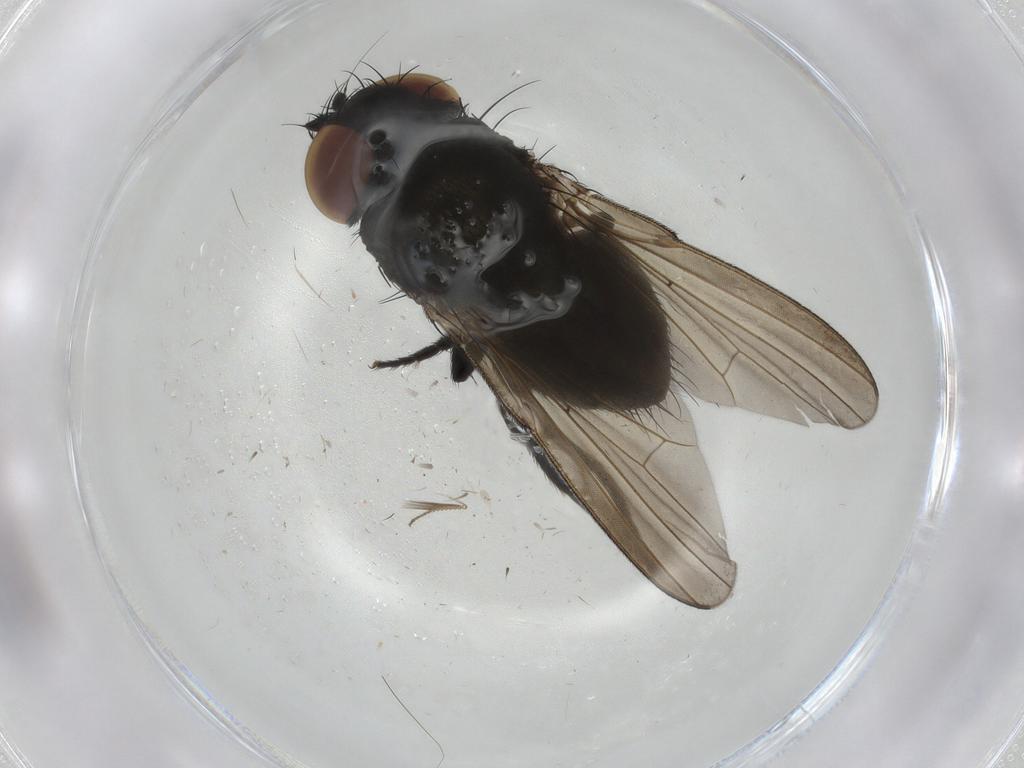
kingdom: Animalia
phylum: Arthropoda
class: Insecta
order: Diptera
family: Milichiidae
